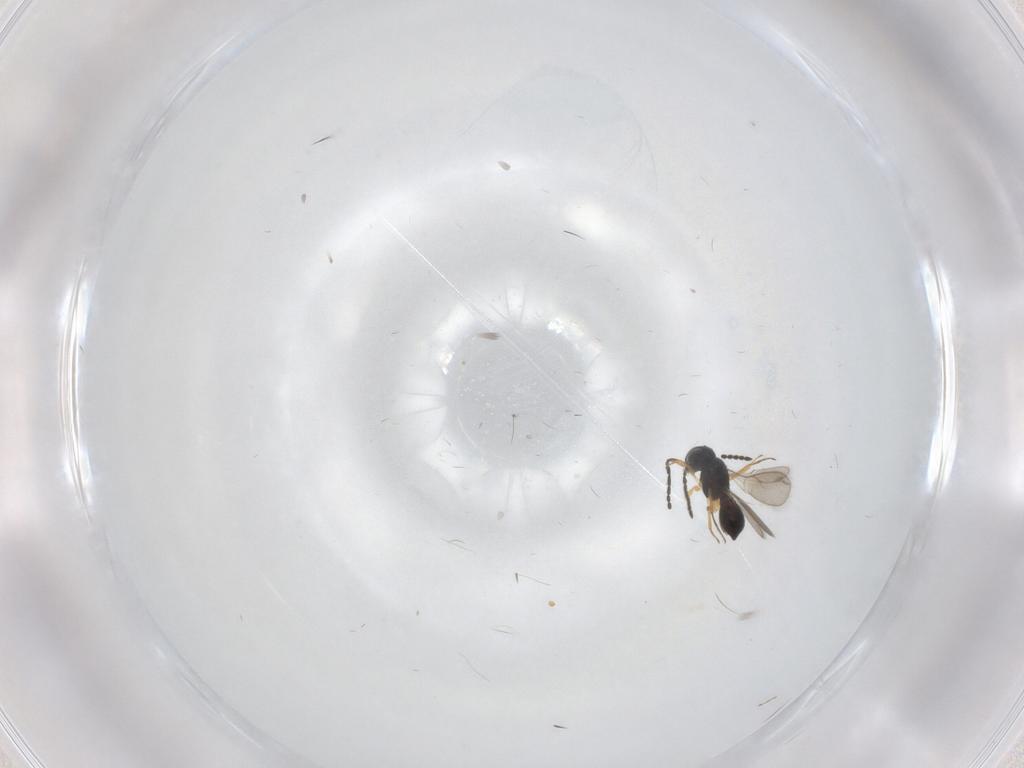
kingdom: Animalia
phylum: Arthropoda
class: Insecta
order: Hymenoptera
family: Scelionidae
